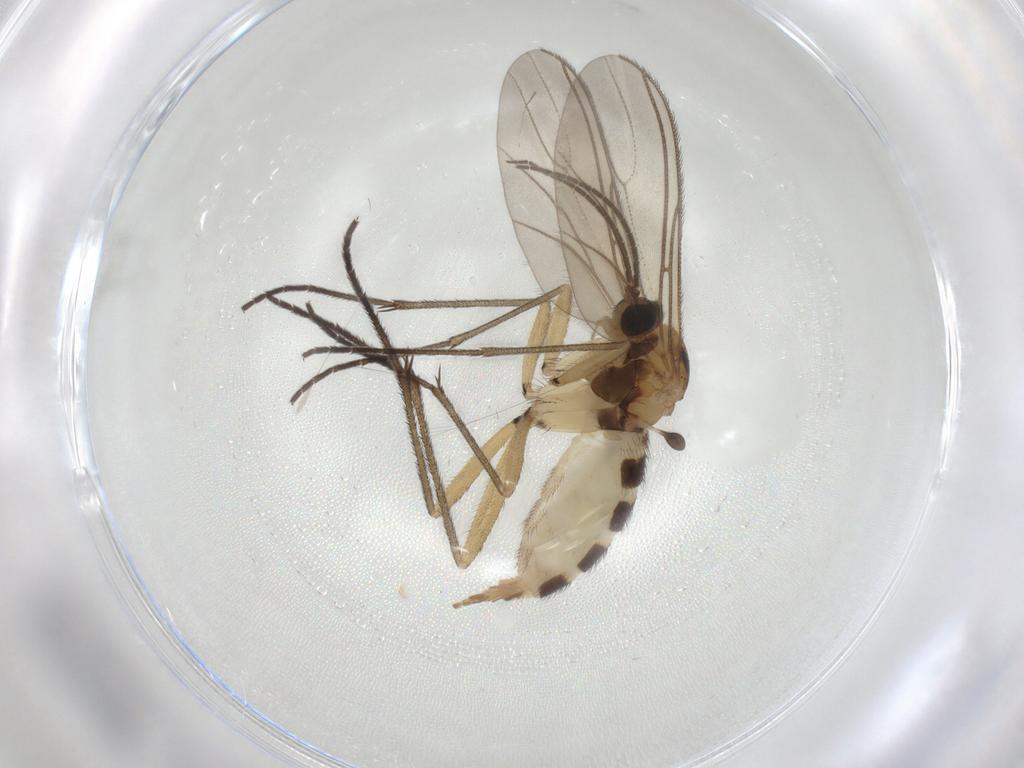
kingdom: Animalia
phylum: Arthropoda
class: Insecta
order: Diptera
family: Sciaridae
